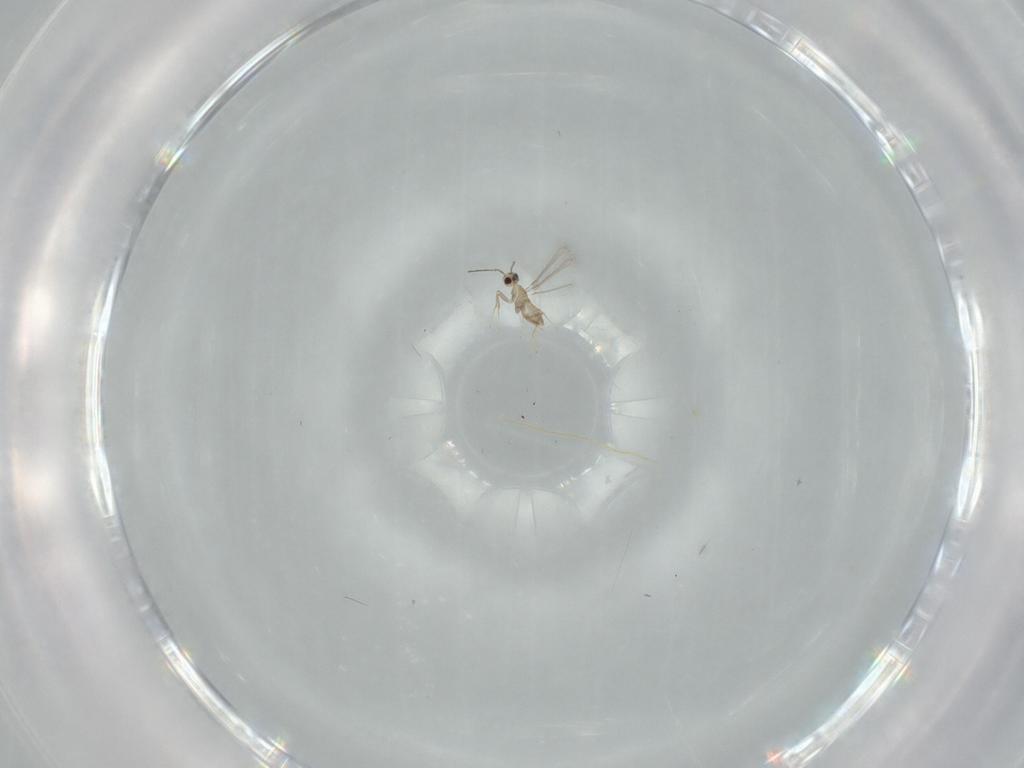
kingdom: Animalia
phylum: Arthropoda
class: Insecta
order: Hymenoptera
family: Mymaridae
